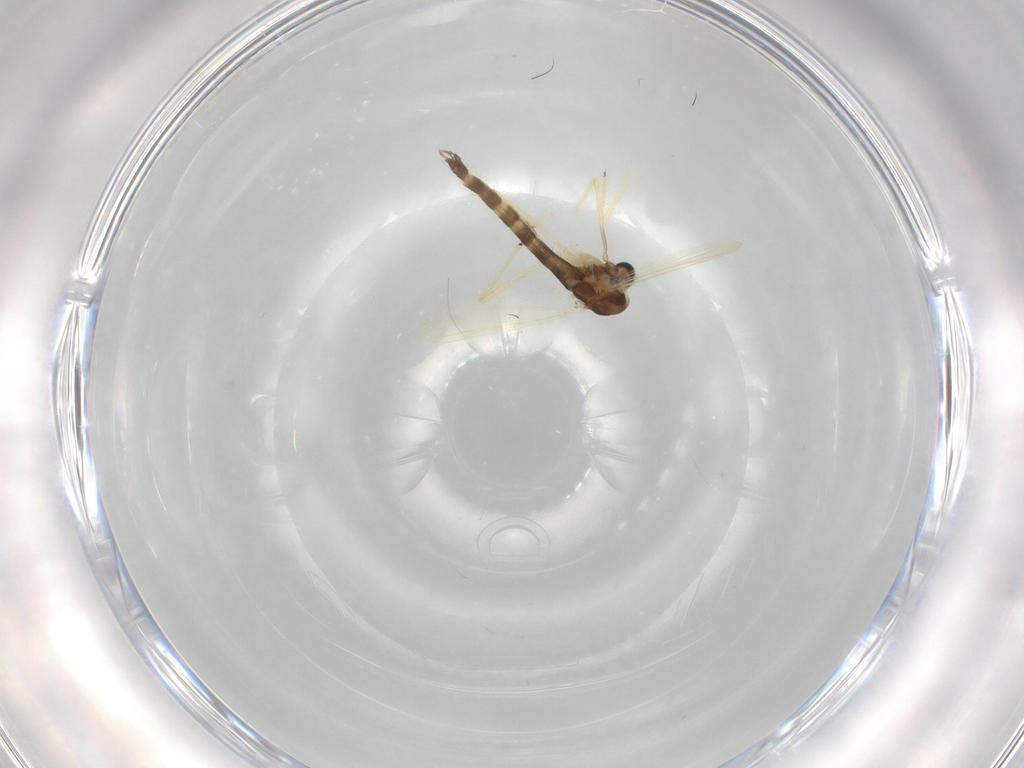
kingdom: Animalia
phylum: Arthropoda
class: Insecta
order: Diptera
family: Chironomidae
